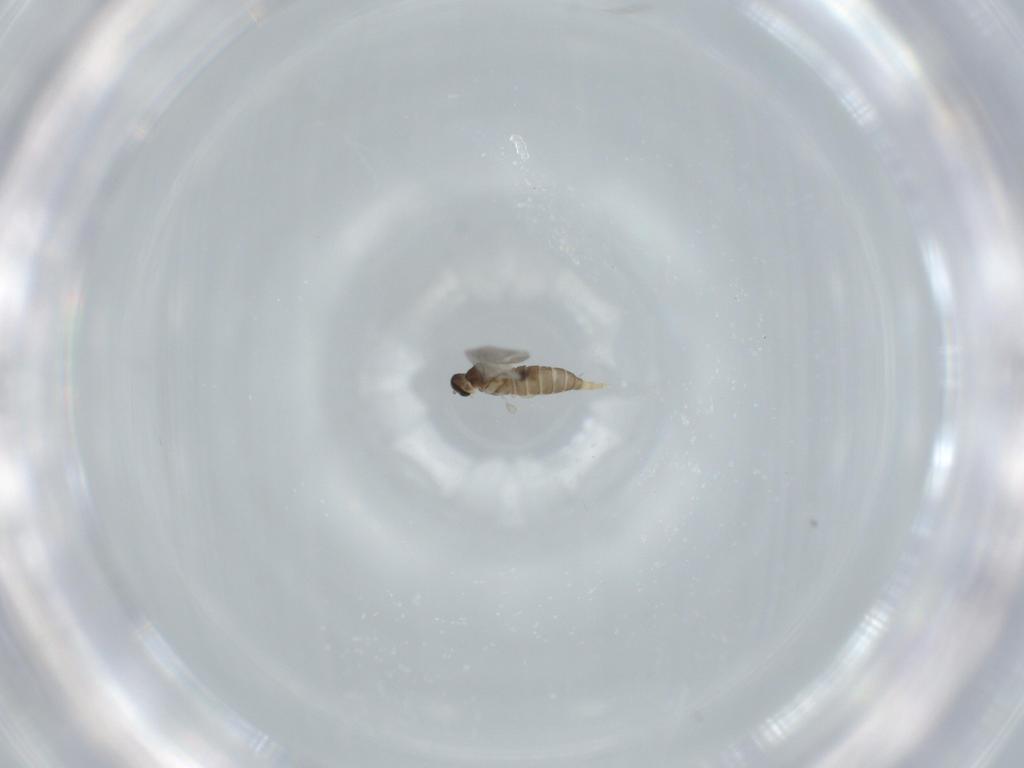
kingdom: Animalia
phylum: Arthropoda
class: Insecta
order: Diptera
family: Cecidomyiidae
